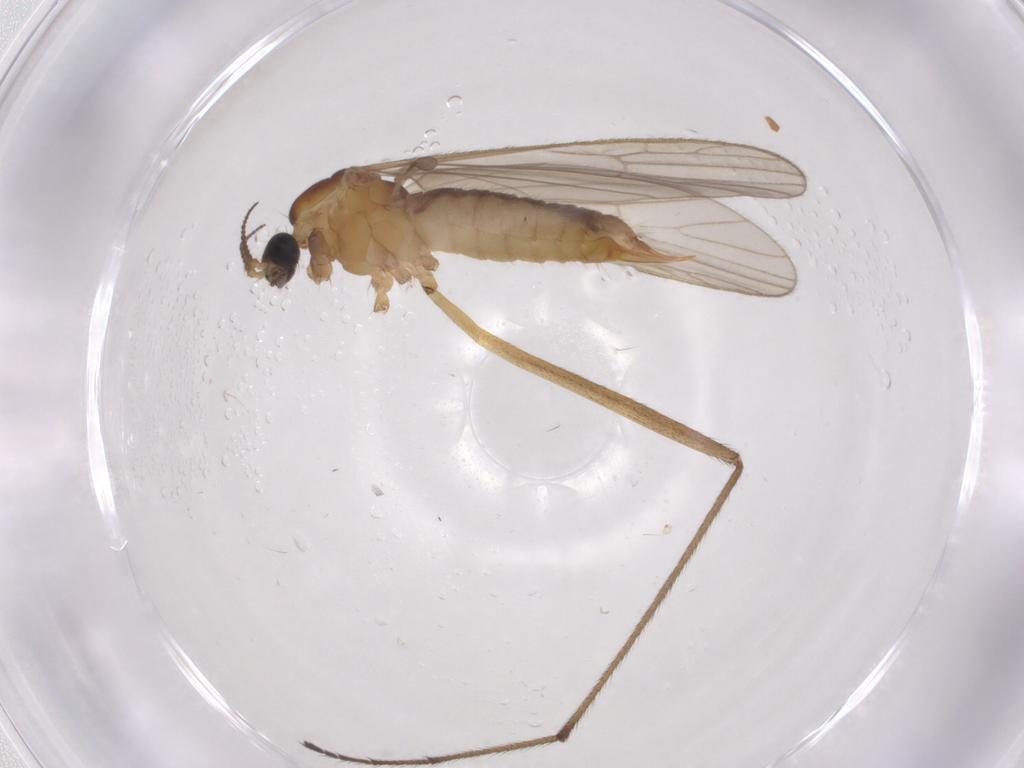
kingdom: Animalia
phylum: Arthropoda
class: Insecta
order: Diptera
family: Limoniidae
